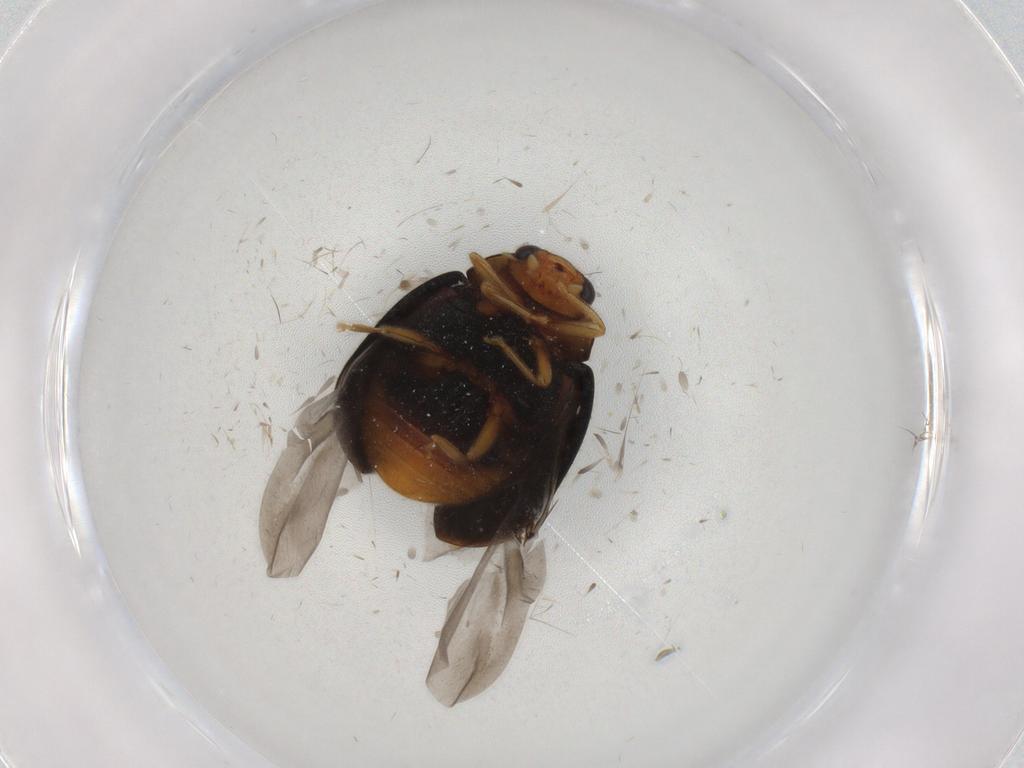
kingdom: Animalia
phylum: Arthropoda
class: Insecta
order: Coleoptera
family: Coccinellidae
